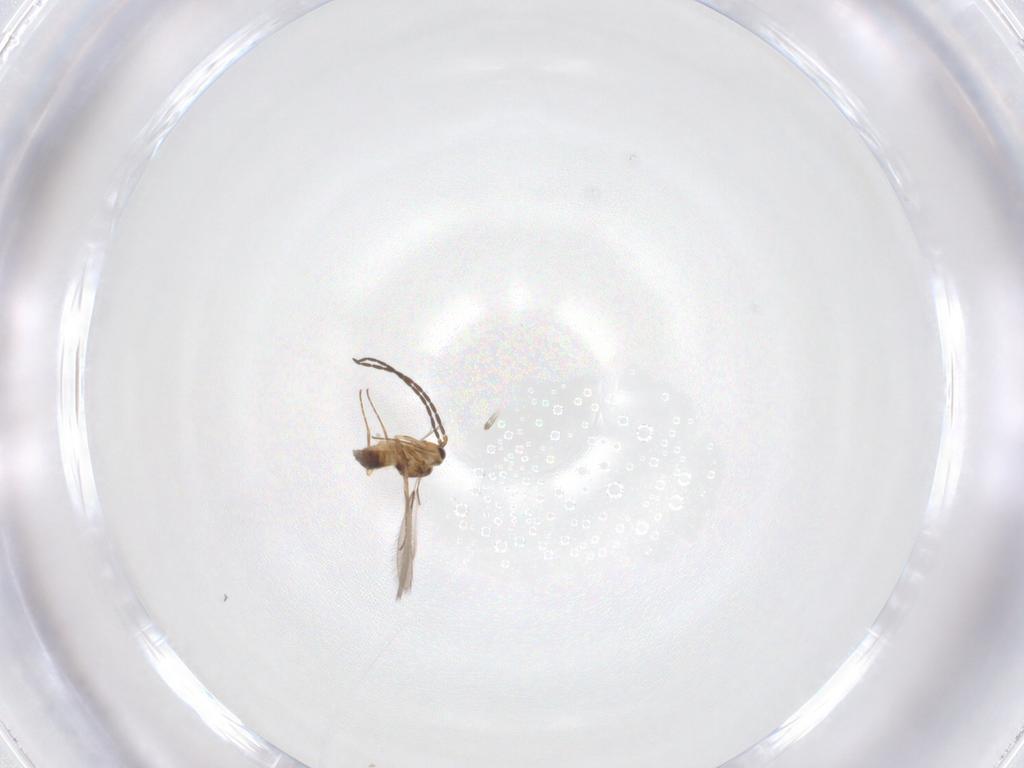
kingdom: Animalia
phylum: Arthropoda
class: Insecta
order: Hymenoptera
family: Mymaridae
